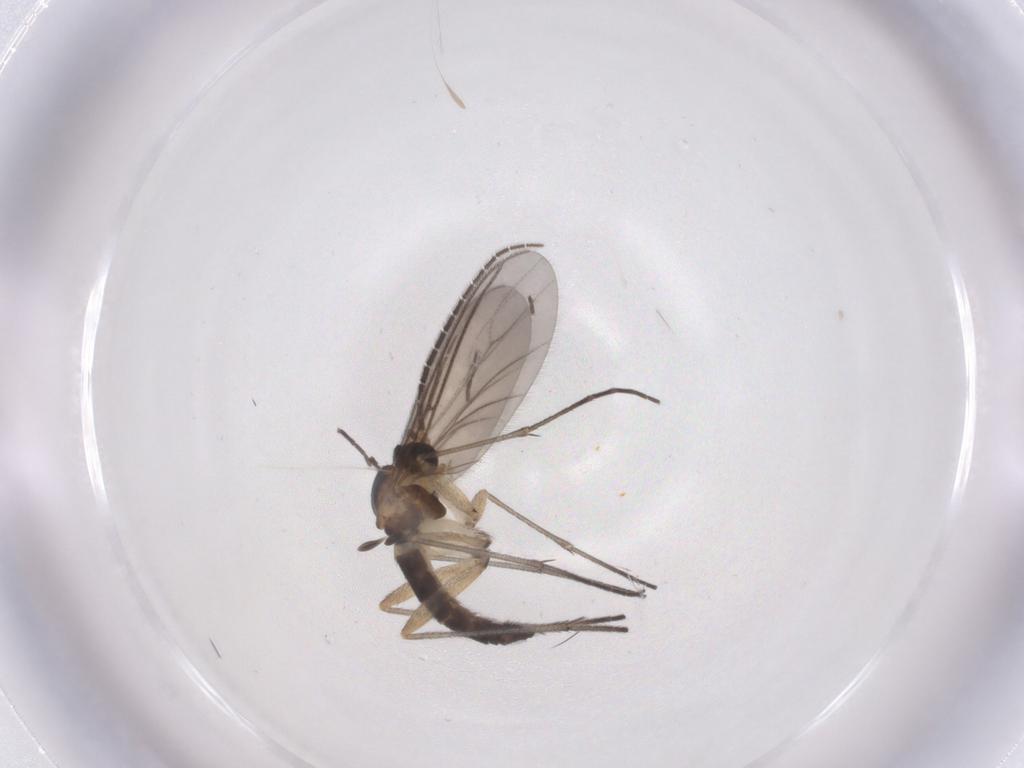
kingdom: Animalia
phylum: Arthropoda
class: Insecta
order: Diptera
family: Sciaridae
